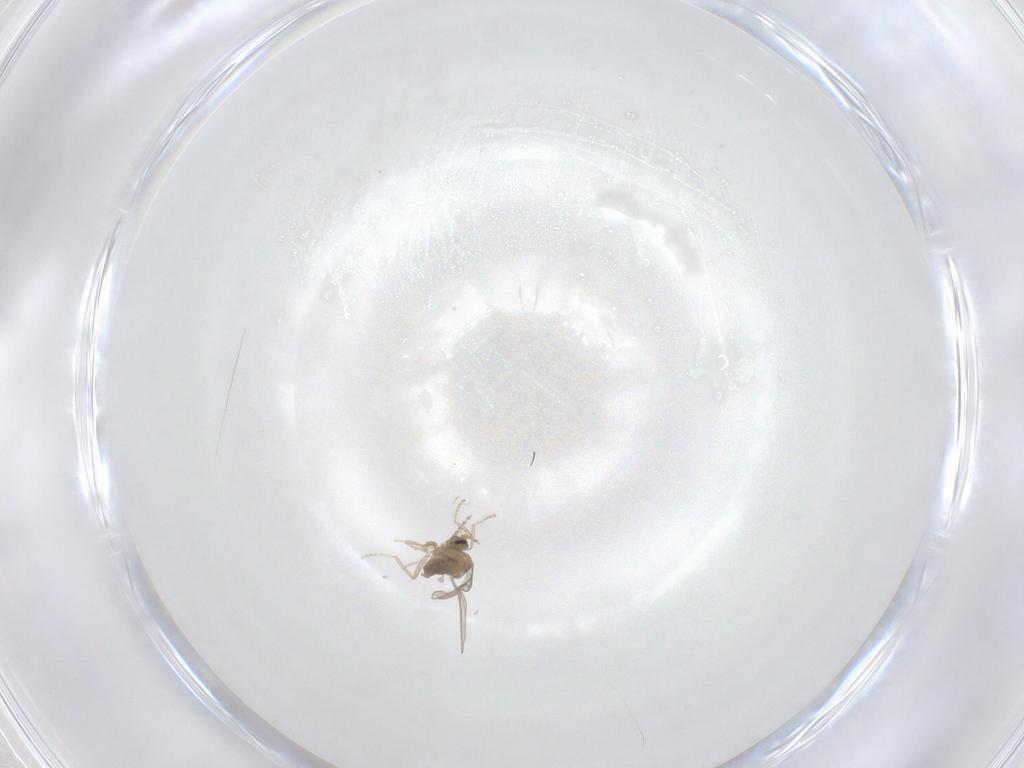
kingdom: Animalia
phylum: Arthropoda
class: Insecta
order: Diptera
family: Cecidomyiidae
